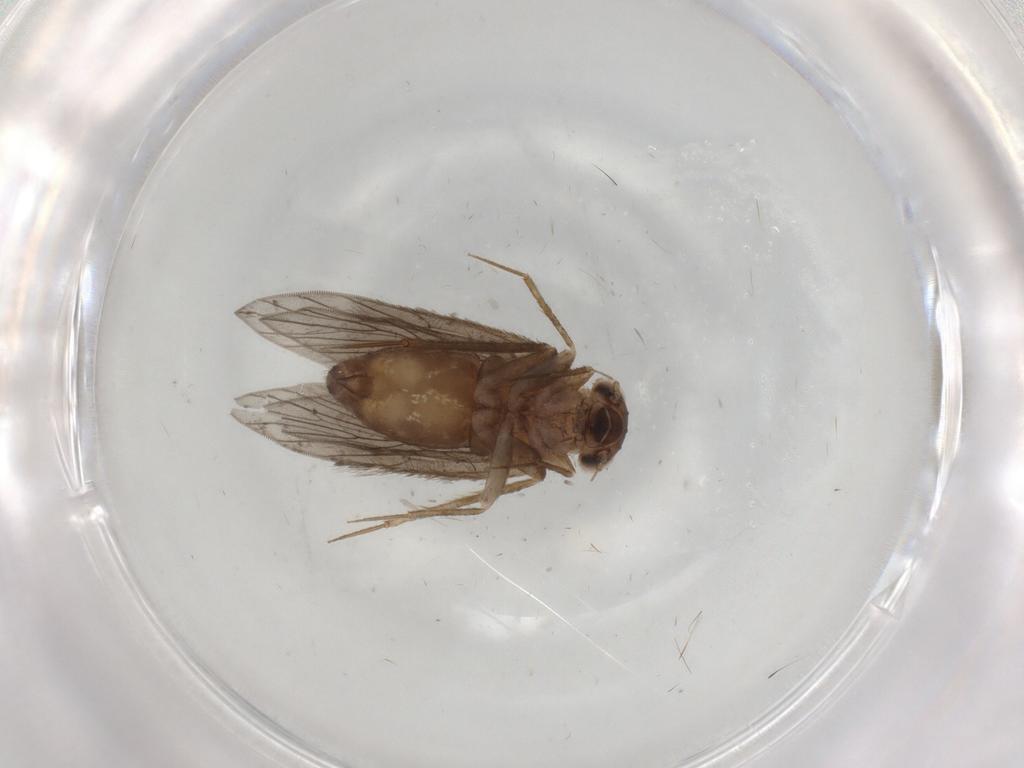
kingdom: Animalia
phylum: Arthropoda
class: Insecta
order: Psocodea
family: Lepidopsocidae
